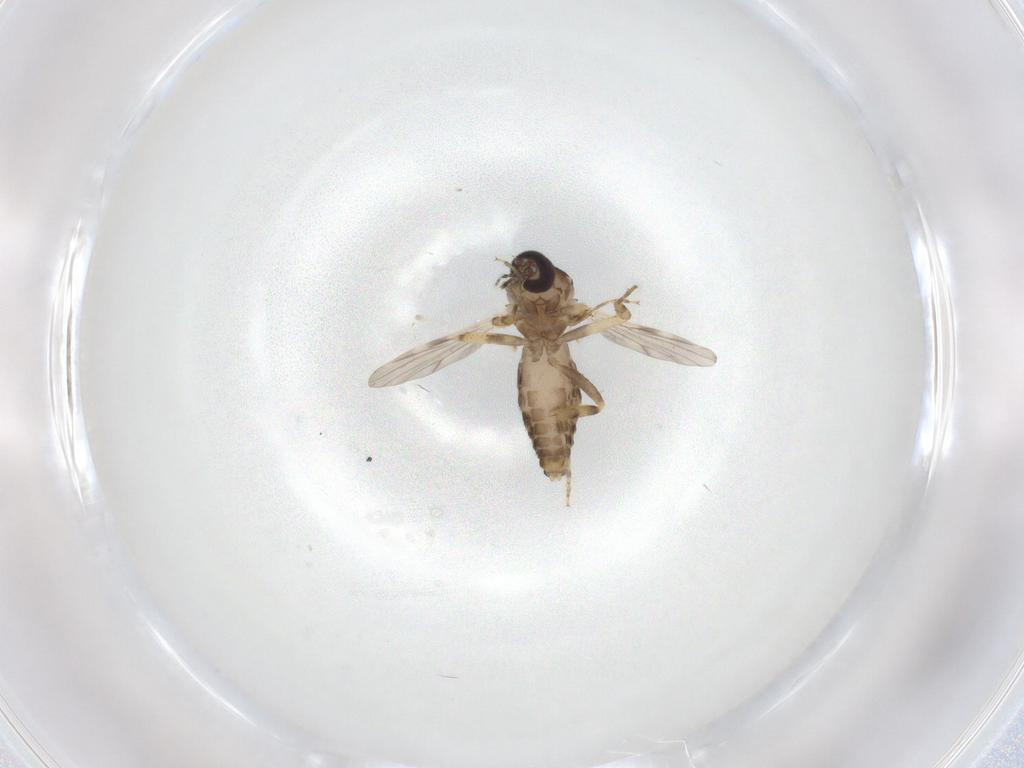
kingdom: Animalia
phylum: Arthropoda
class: Insecta
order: Diptera
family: Ceratopogonidae
